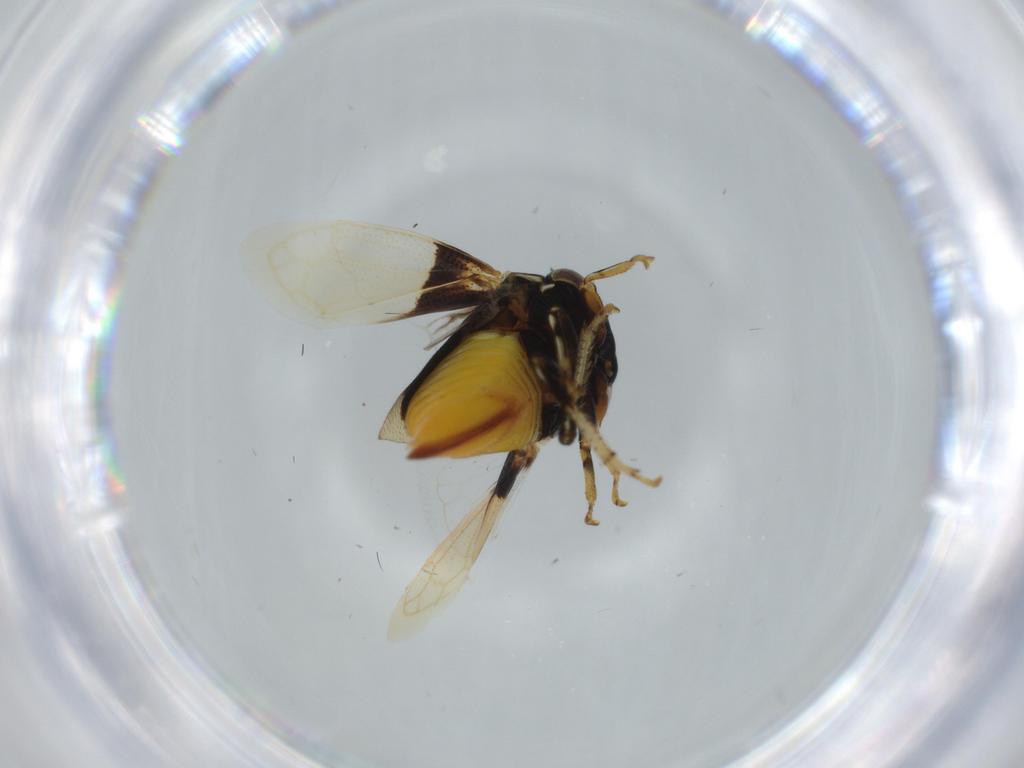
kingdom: Animalia
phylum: Arthropoda
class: Insecta
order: Hemiptera
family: Membracidae
